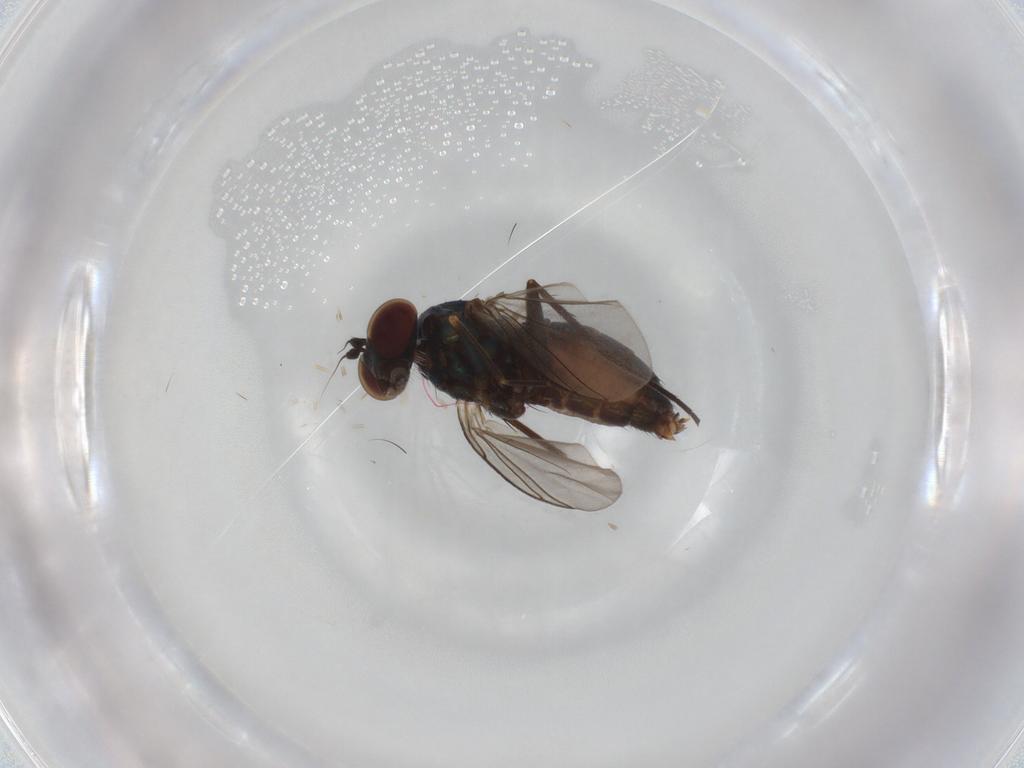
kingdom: Animalia
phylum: Arthropoda
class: Insecta
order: Diptera
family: Dolichopodidae
